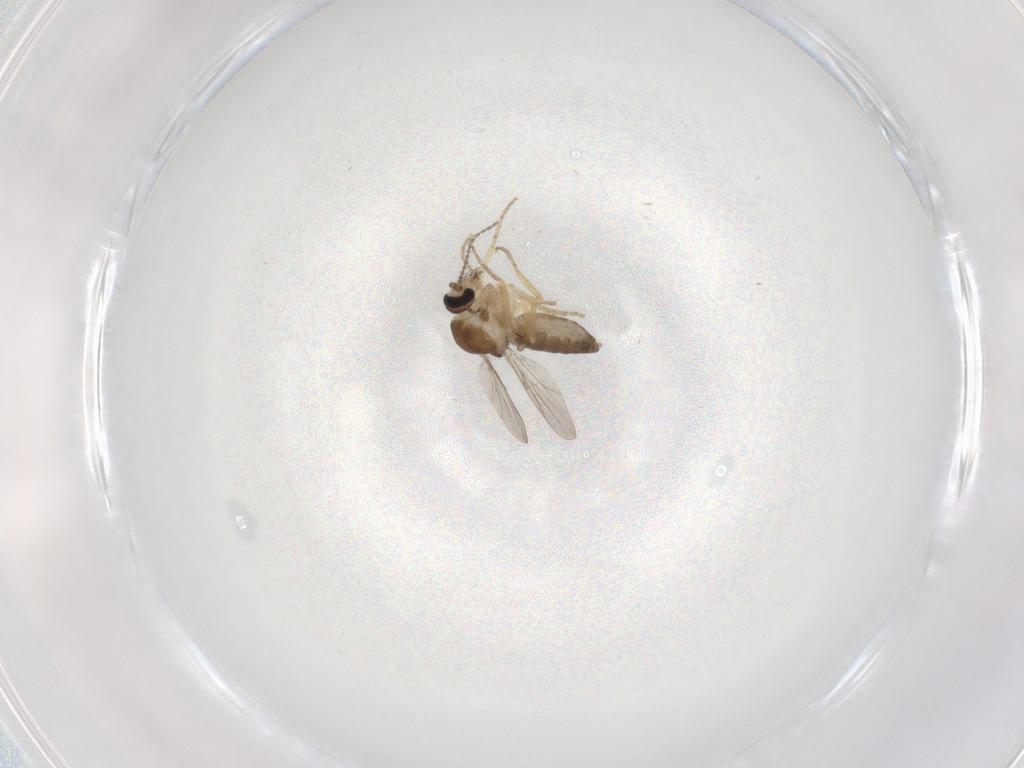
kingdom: Animalia
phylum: Arthropoda
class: Insecta
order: Diptera
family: Ceratopogonidae
